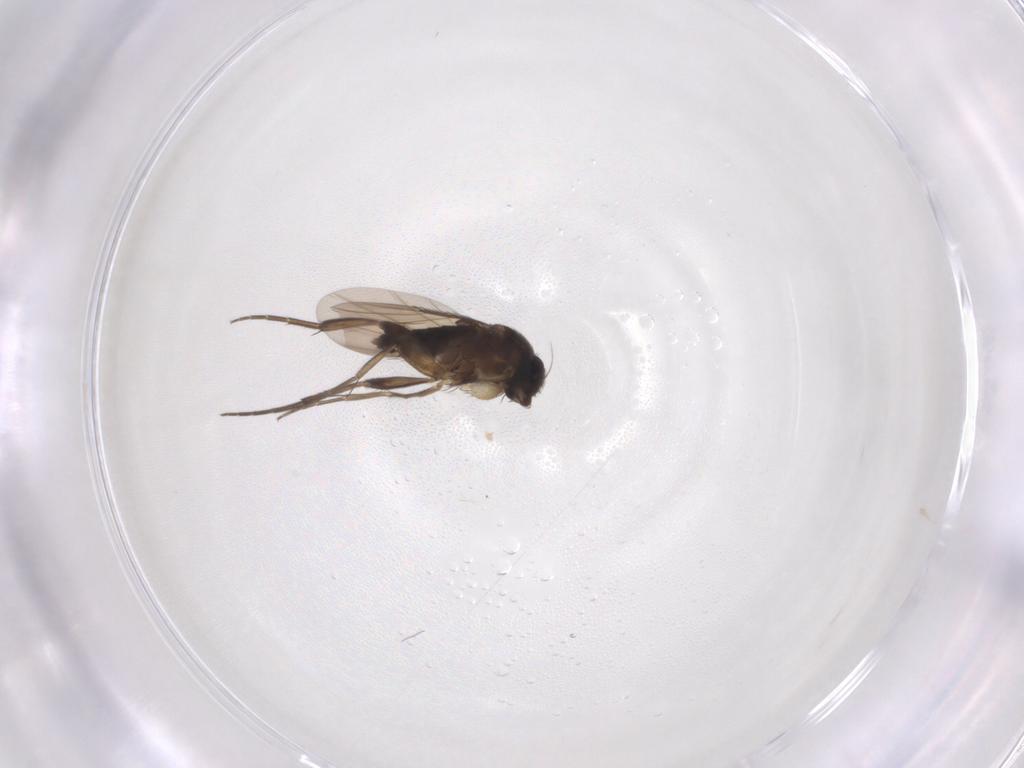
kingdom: Animalia
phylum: Arthropoda
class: Insecta
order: Diptera
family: Phoridae
